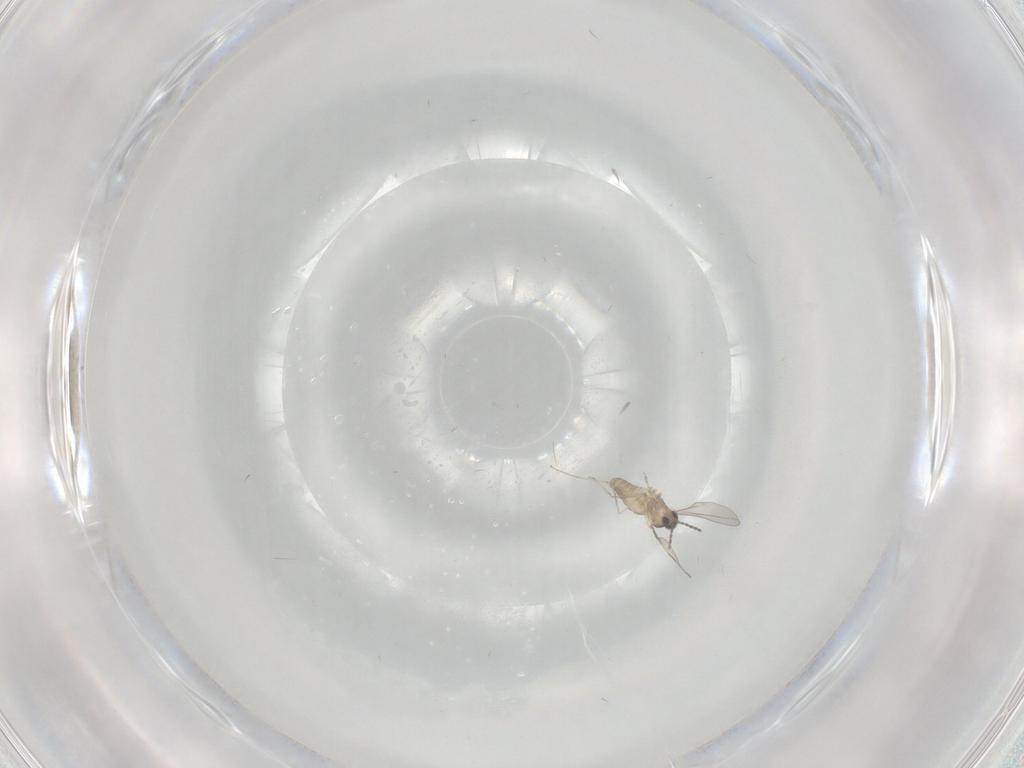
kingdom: Animalia
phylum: Arthropoda
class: Insecta
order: Diptera
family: Cecidomyiidae
